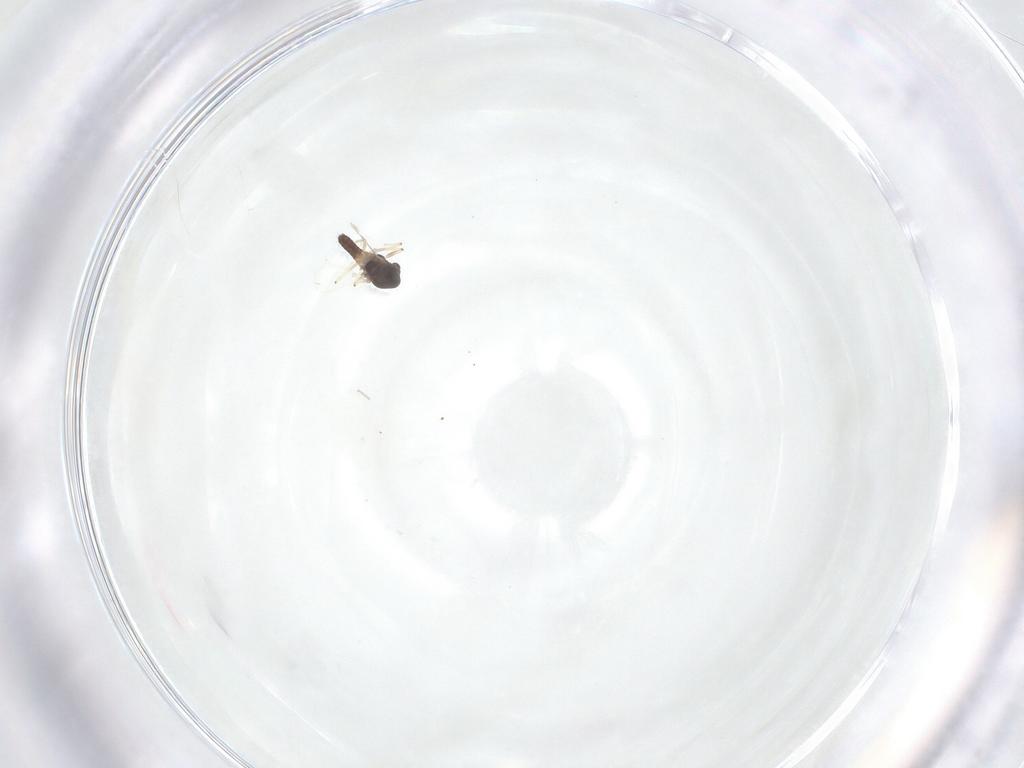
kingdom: Animalia
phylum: Arthropoda
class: Insecta
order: Diptera
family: Chironomidae
